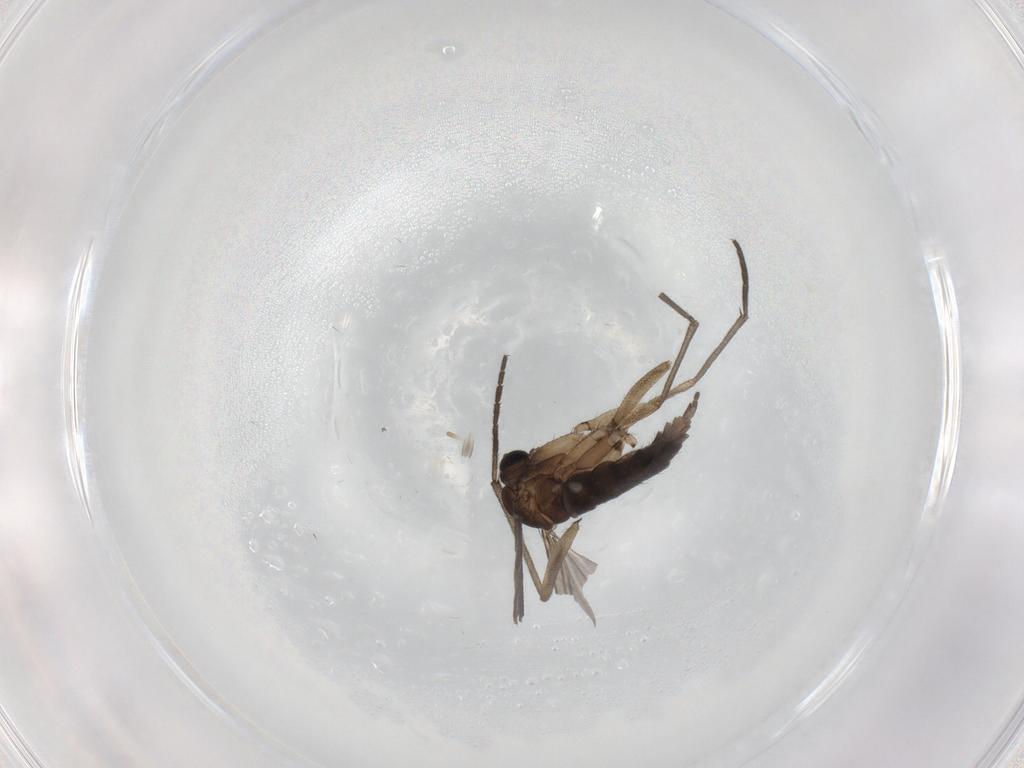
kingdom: Animalia
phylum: Arthropoda
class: Insecta
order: Diptera
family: Sciaridae
